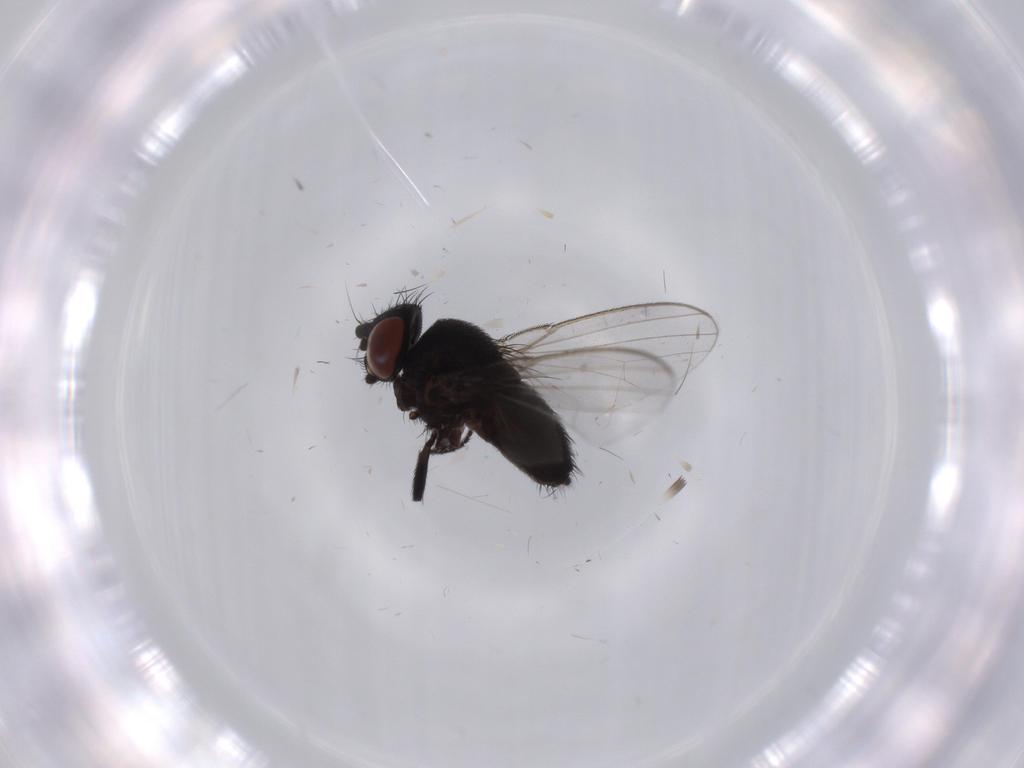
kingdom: Animalia
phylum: Arthropoda
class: Insecta
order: Diptera
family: Milichiidae
